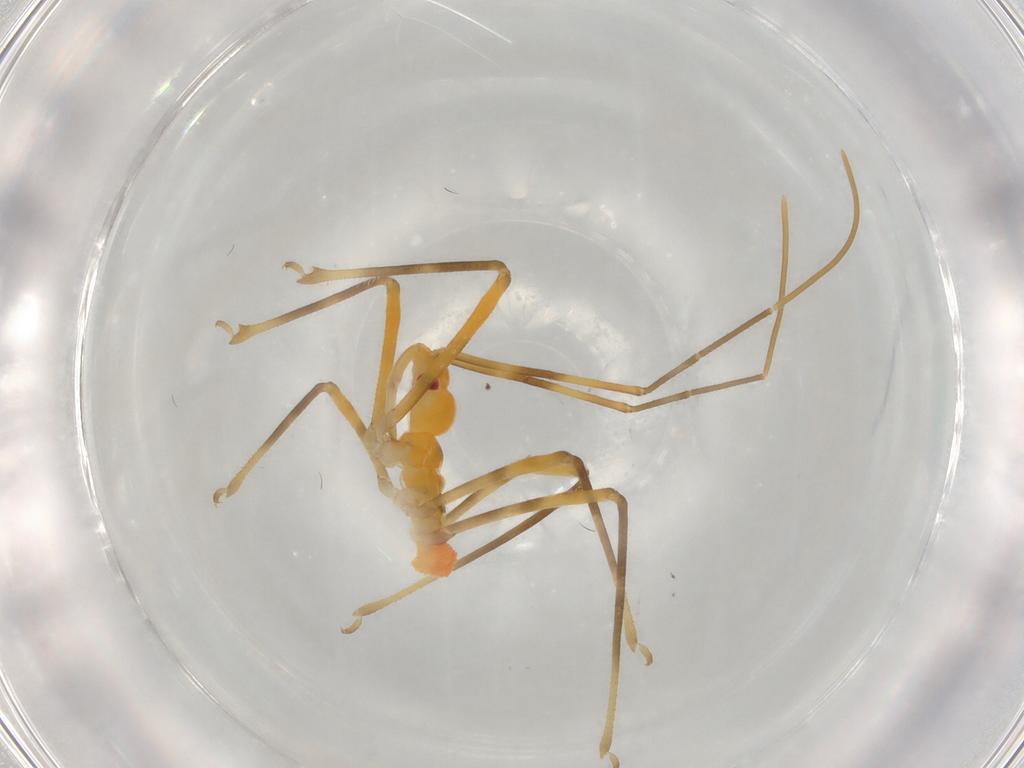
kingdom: Animalia
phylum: Arthropoda
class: Insecta
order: Hemiptera
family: Reduviidae
